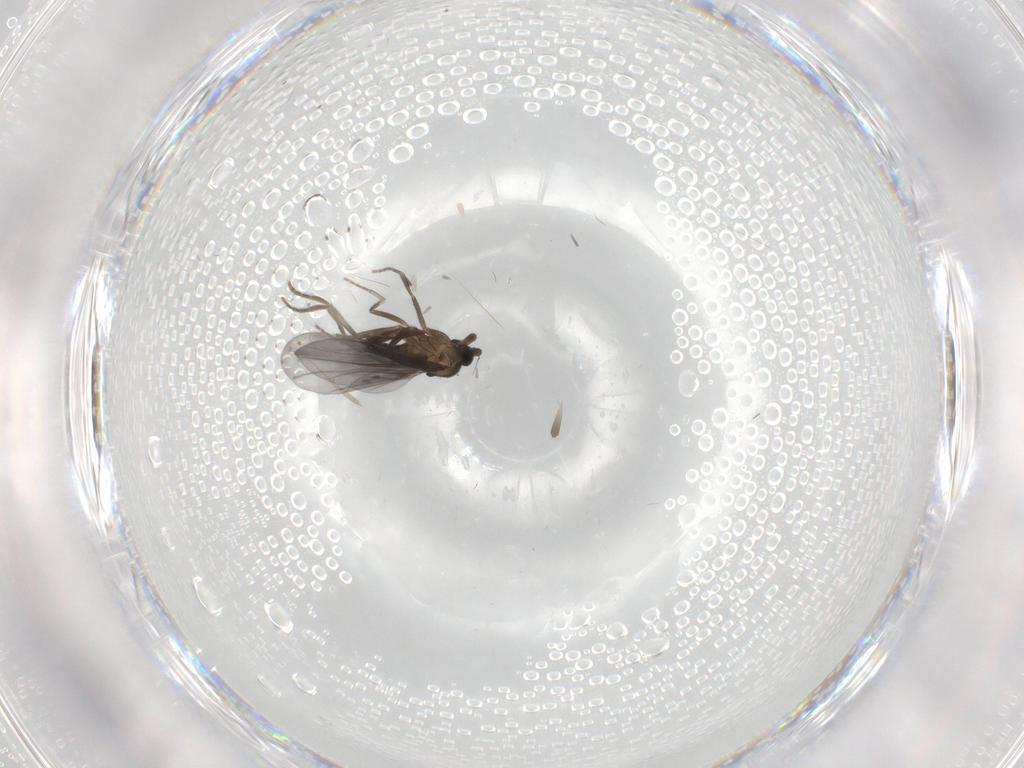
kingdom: Animalia
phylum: Arthropoda
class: Insecta
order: Diptera
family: Phoridae
